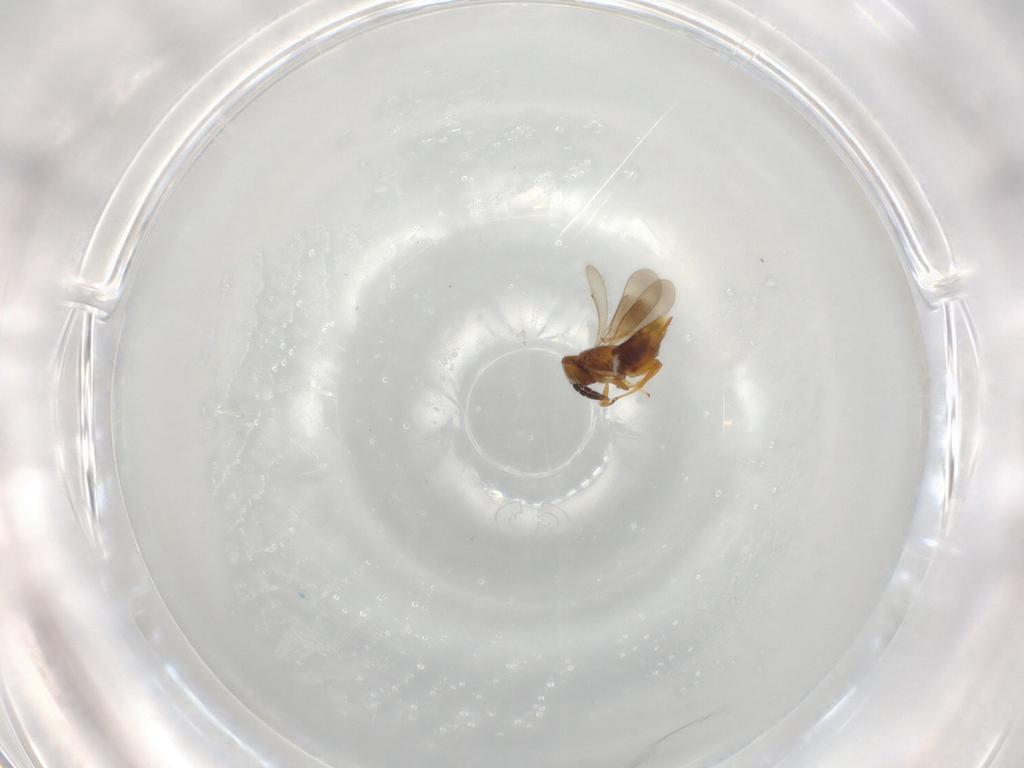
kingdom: Animalia
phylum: Arthropoda
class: Insecta
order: Hymenoptera
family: Aphelinidae
